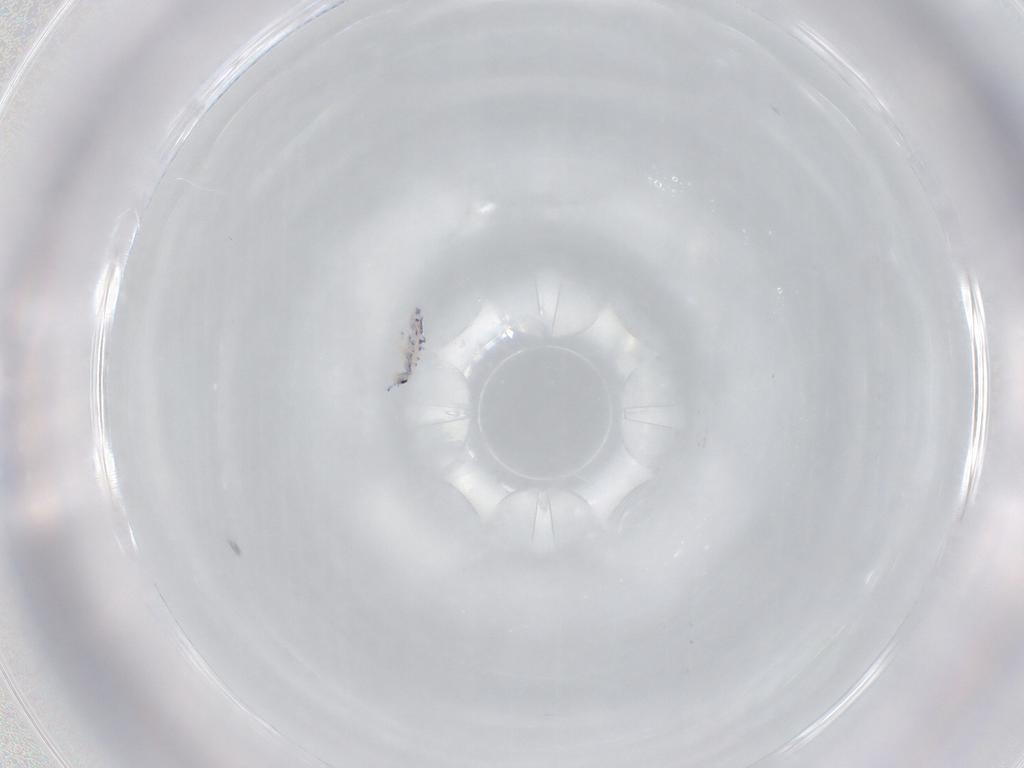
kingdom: Animalia
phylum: Arthropoda
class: Collembola
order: Entomobryomorpha
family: Entomobryidae
